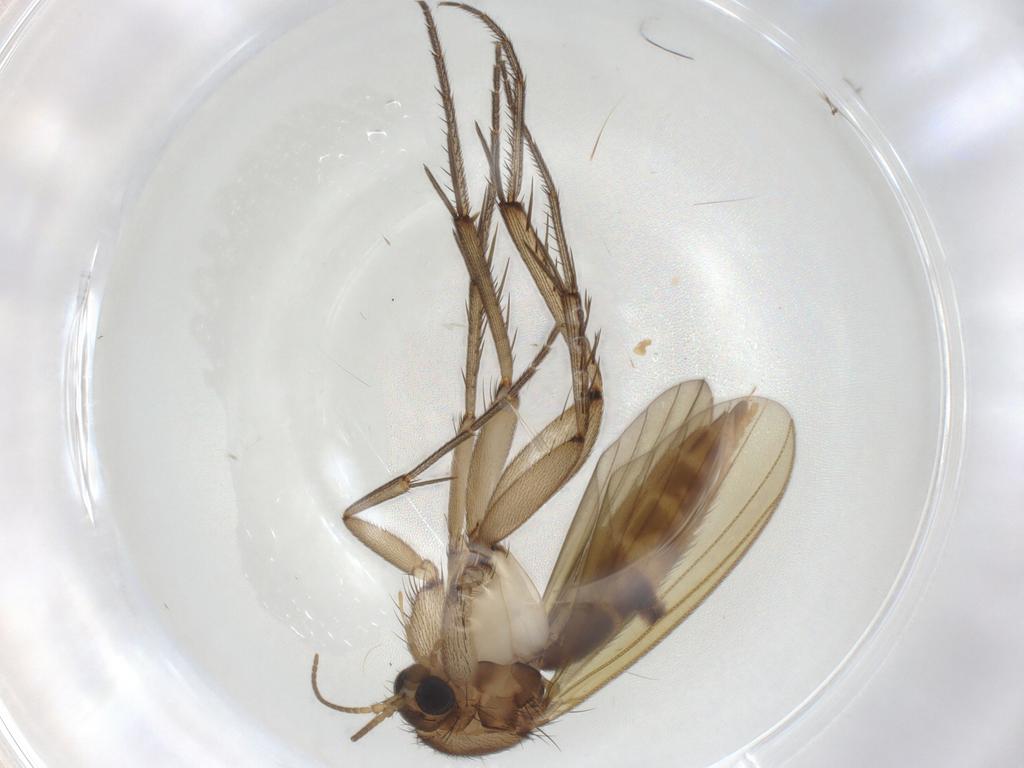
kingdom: Animalia
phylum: Arthropoda
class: Insecta
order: Diptera
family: Mycetophilidae
